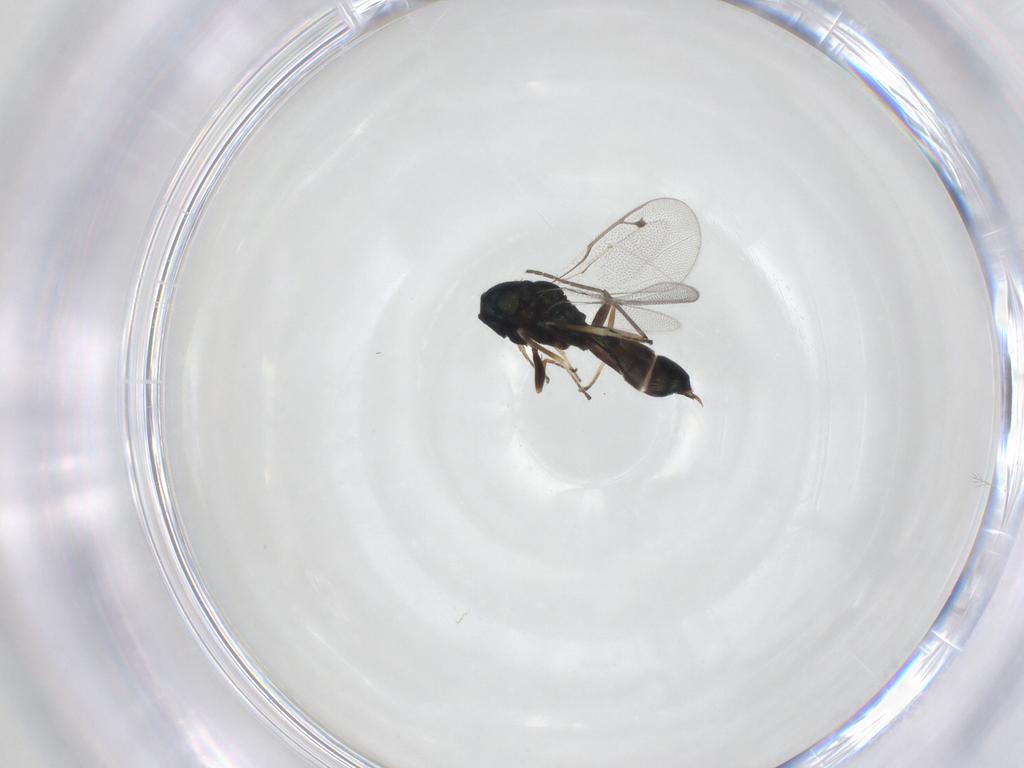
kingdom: Animalia
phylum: Arthropoda
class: Insecta
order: Hymenoptera
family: Pteromalidae
